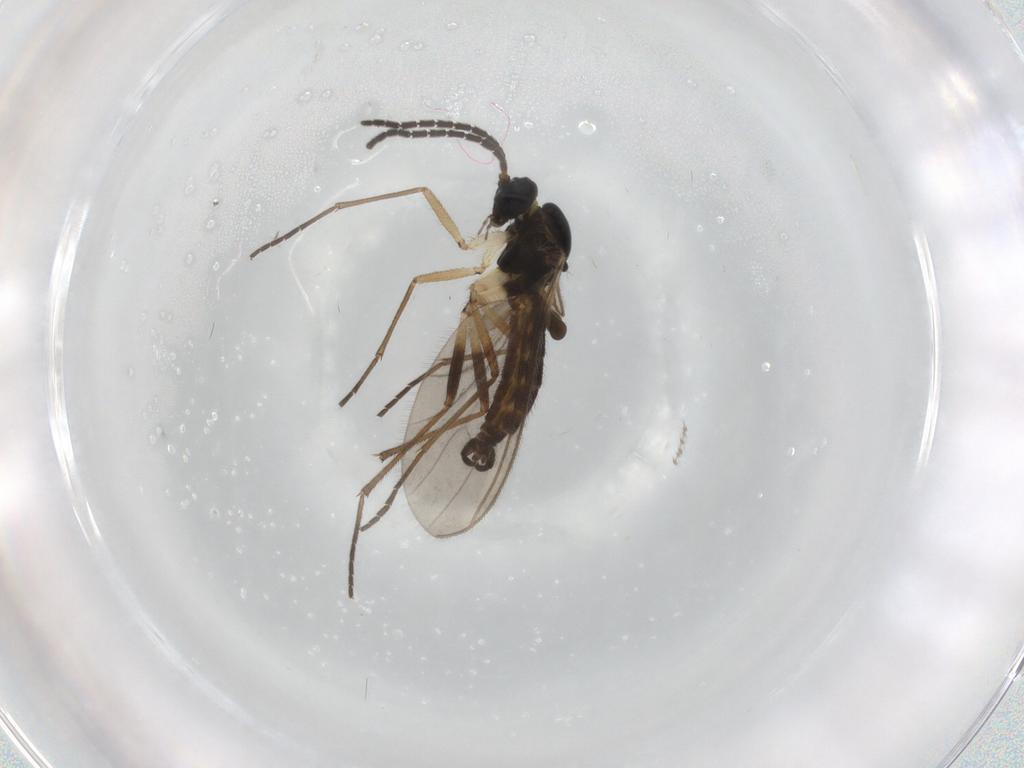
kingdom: Animalia
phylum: Arthropoda
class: Insecta
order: Diptera
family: Sciaridae
